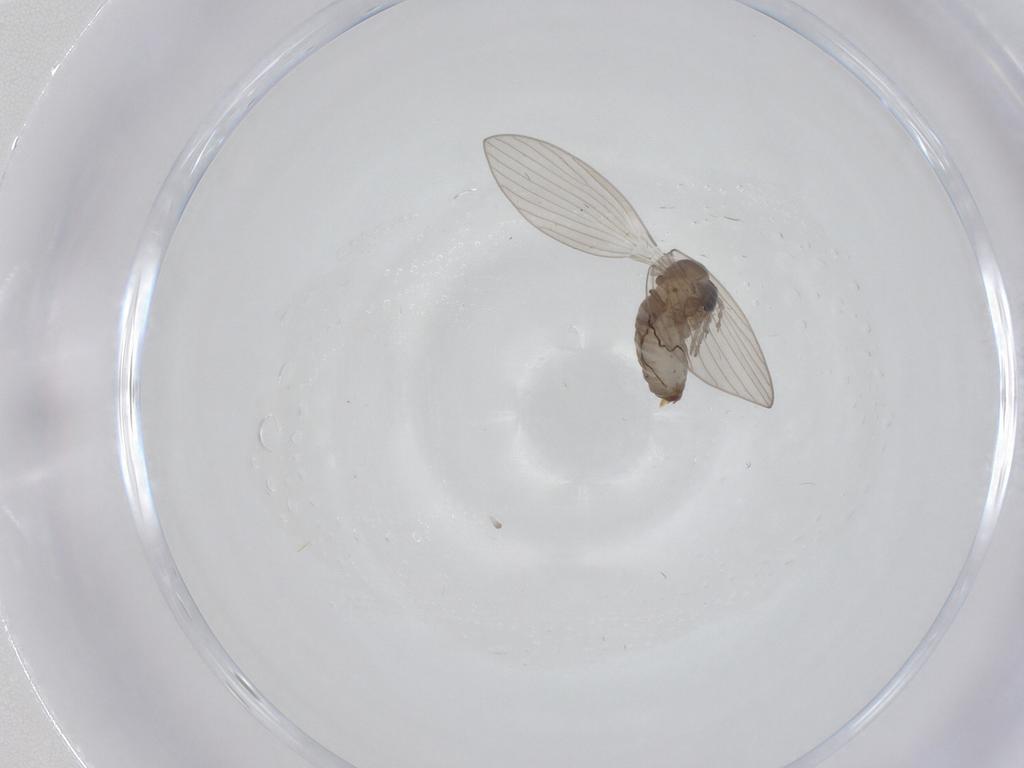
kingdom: Animalia
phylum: Arthropoda
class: Insecta
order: Diptera
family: Psychodidae
